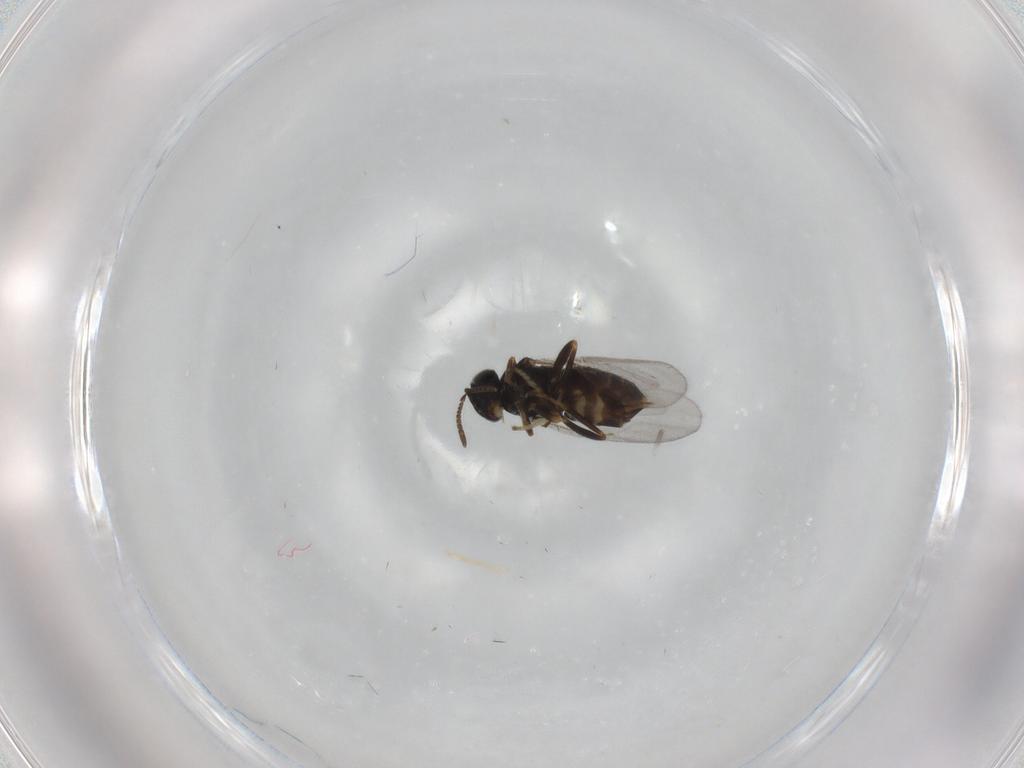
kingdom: Animalia
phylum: Arthropoda
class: Insecta
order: Hymenoptera
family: Encyrtidae
